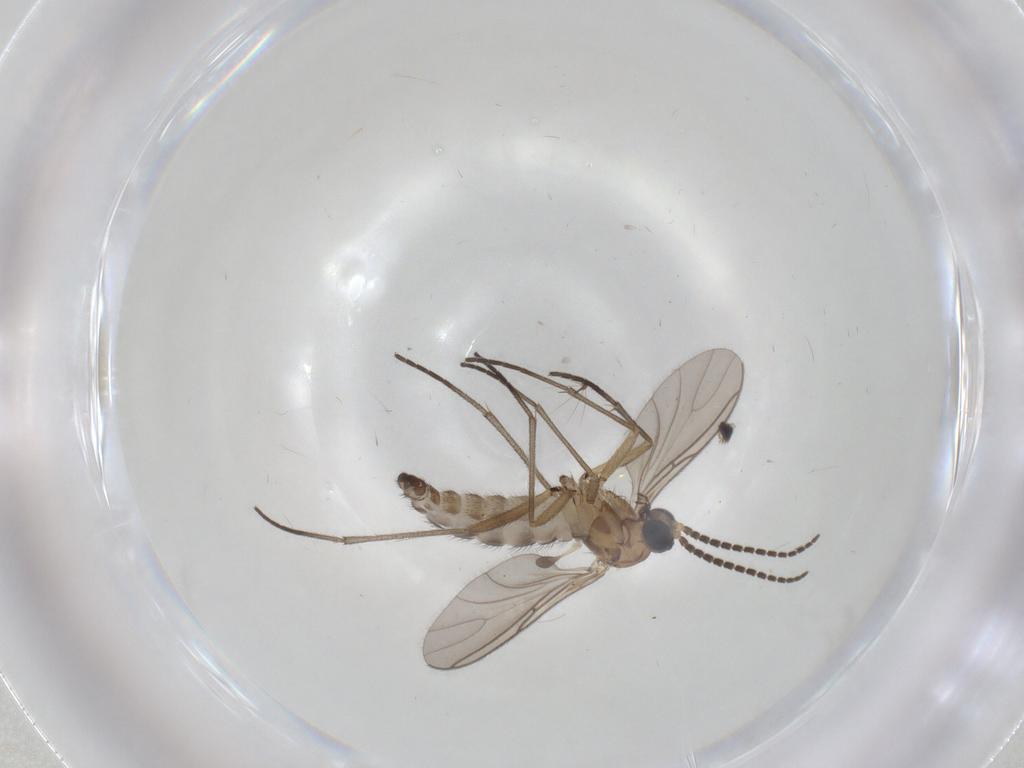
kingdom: Animalia
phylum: Arthropoda
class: Insecta
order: Diptera
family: Sciaridae
